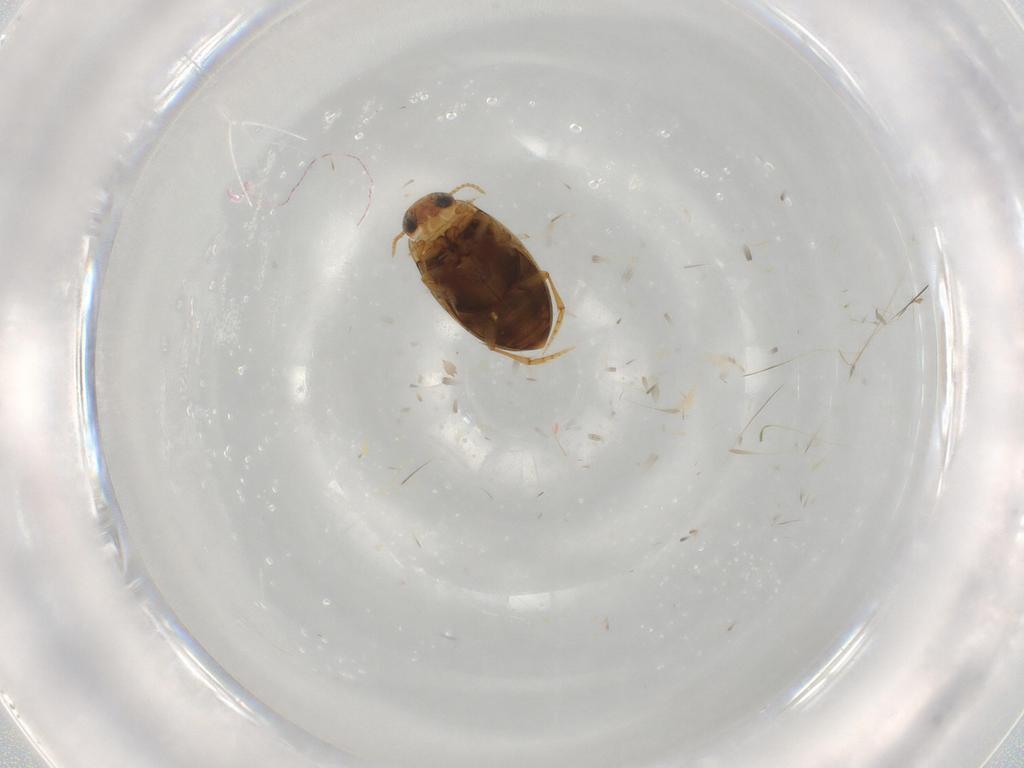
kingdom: Animalia
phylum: Arthropoda
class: Insecta
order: Coleoptera
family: Dytiscidae
